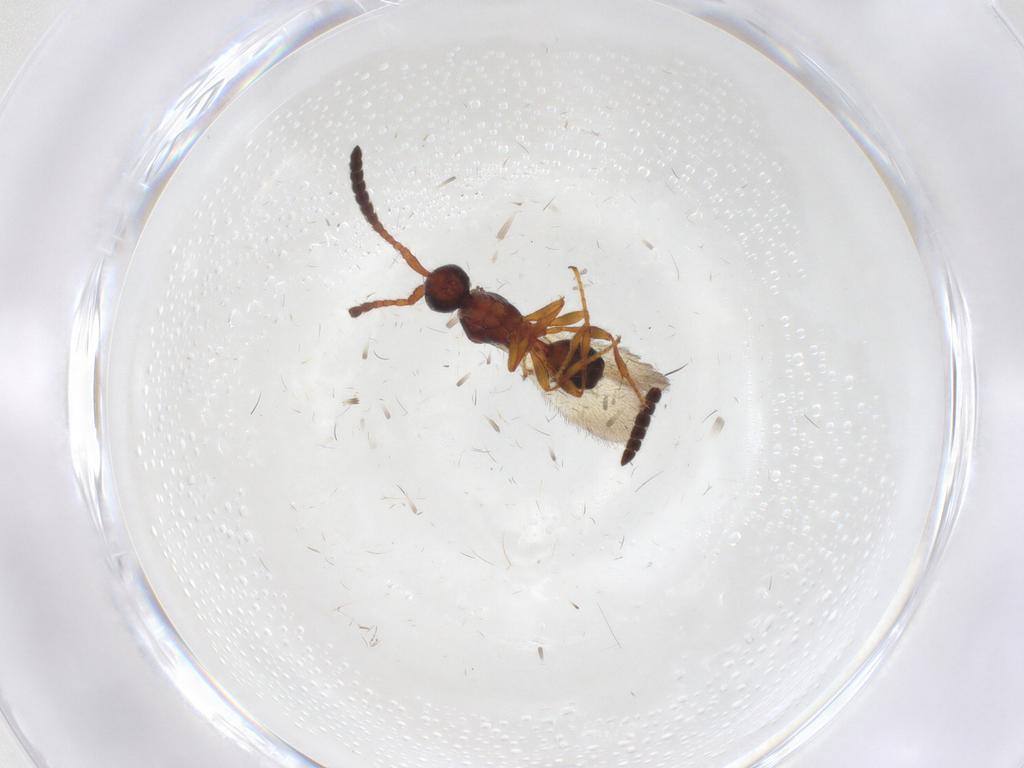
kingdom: Animalia
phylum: Arthropoda
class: Insecta
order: Hymenoptera
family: Diapriidae
